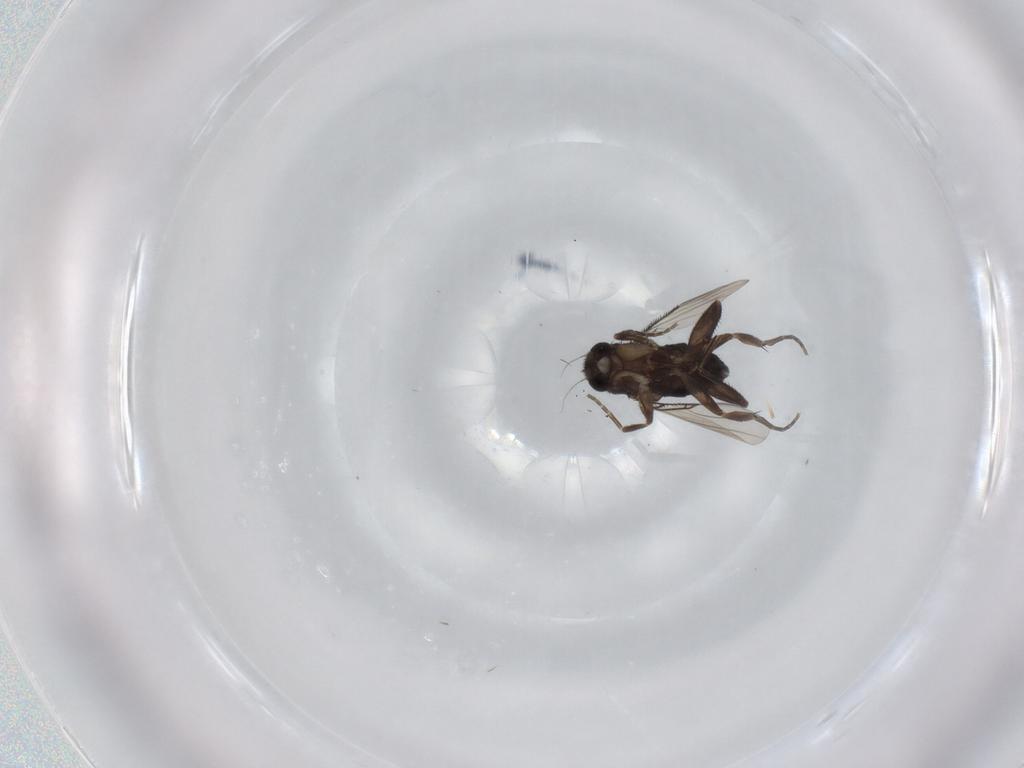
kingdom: Animalia
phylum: Arthropoda
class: Insecta
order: Diptera
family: Phoridae
